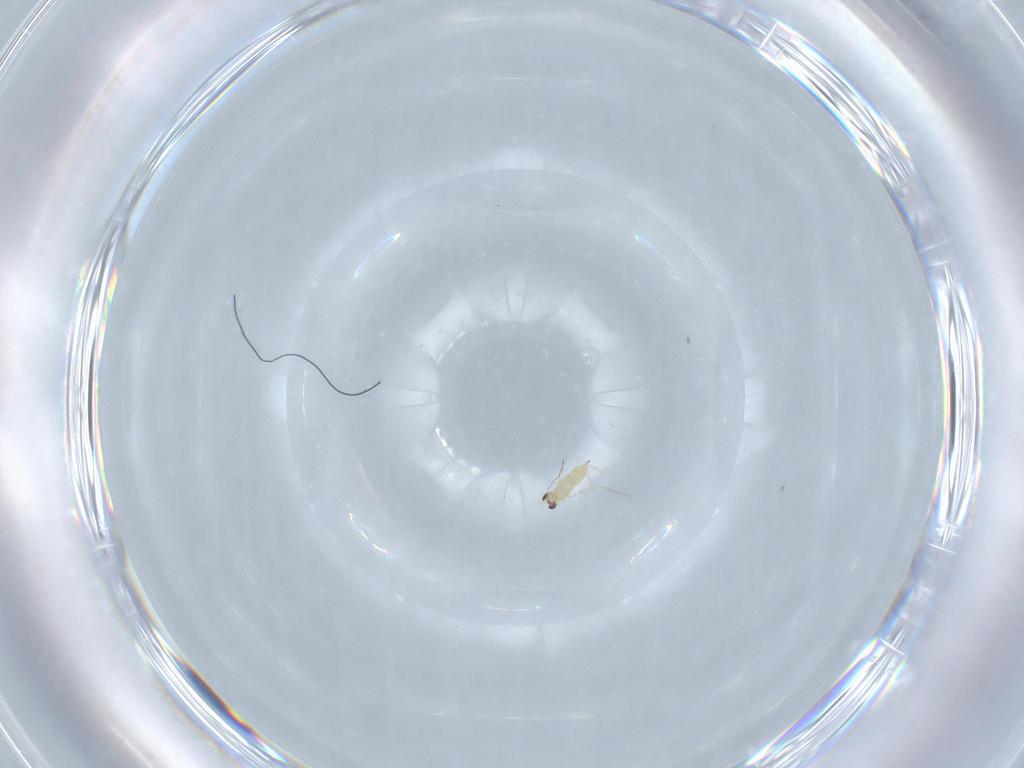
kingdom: Animalia
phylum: Arthropoda
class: Insecta
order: Hymenoptera
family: Mymaridae
